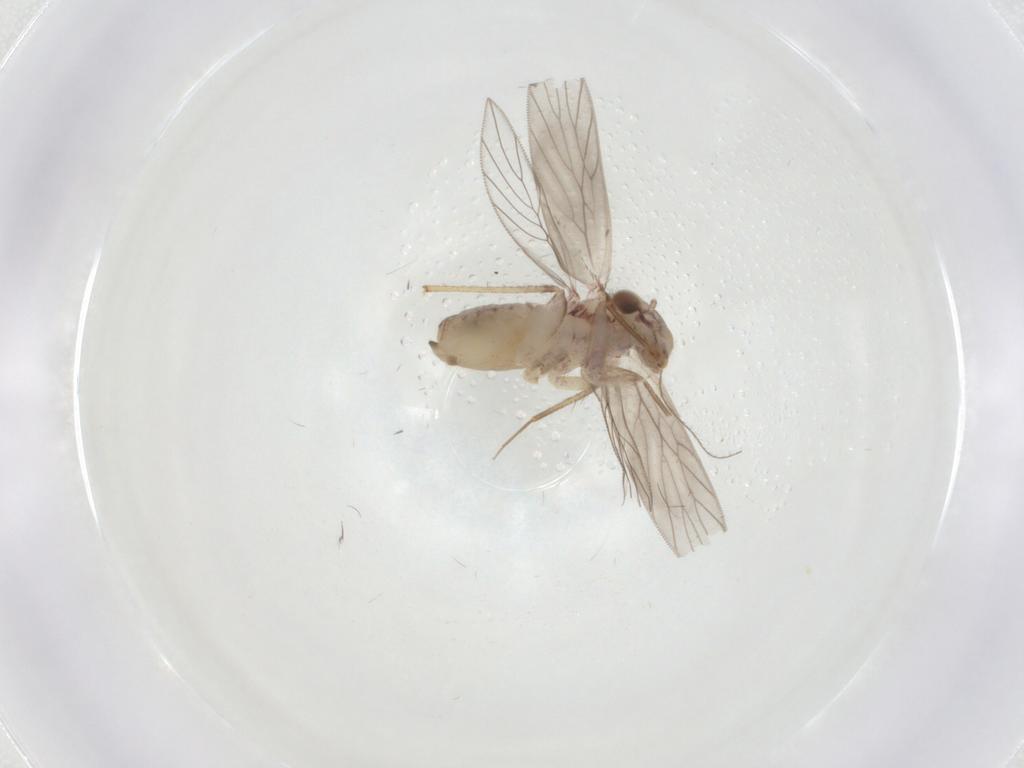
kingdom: Animalia
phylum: Arthropoda
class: Insecta
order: Psocodea
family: Lepidopsocidae
